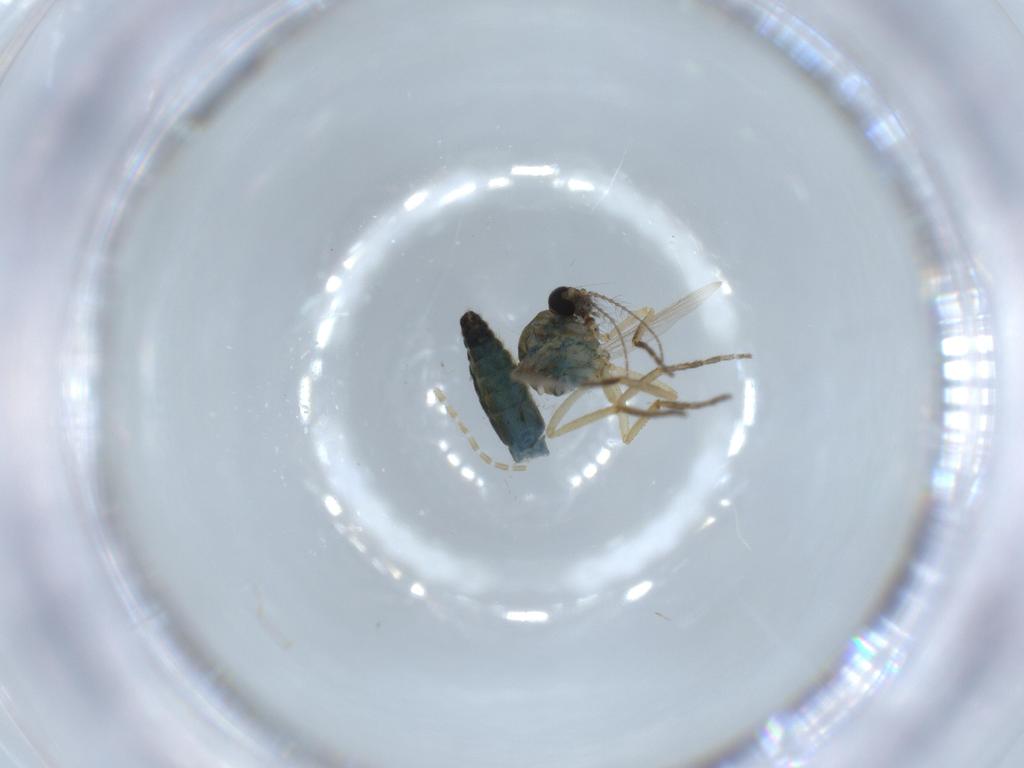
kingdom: Animalia
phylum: Arthropoda
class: Insecta
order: Diptera
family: Ceratopogonidae
